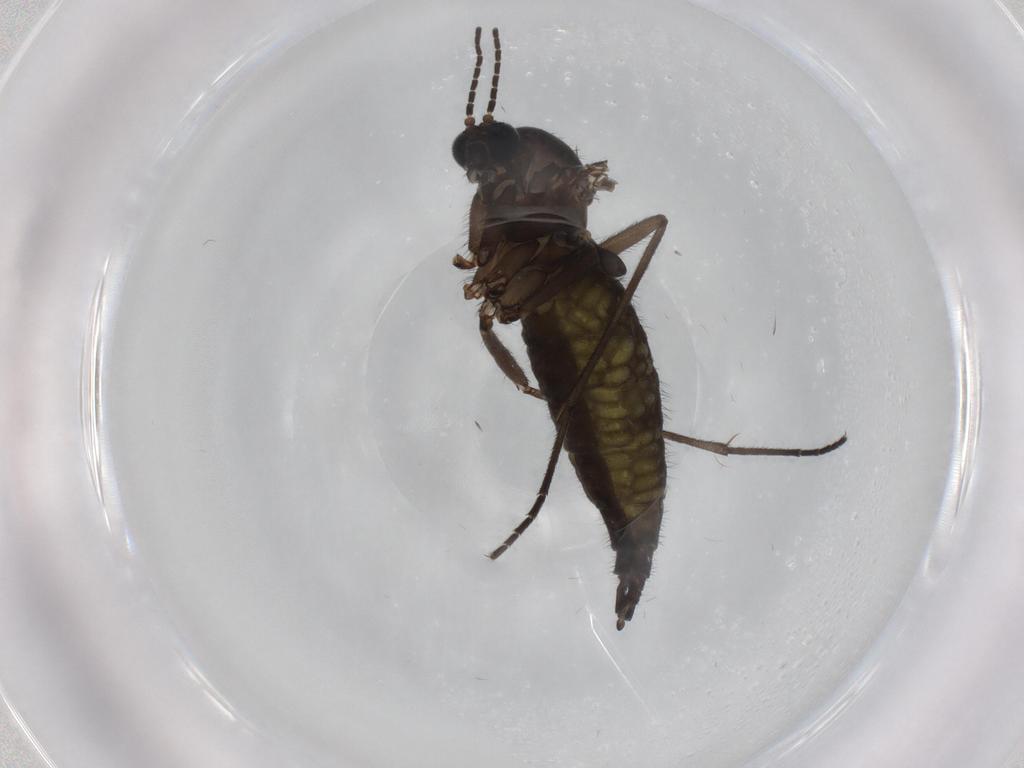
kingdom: Animalia
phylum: Arthropoda
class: Insecta
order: Diptera
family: Sciaridae
